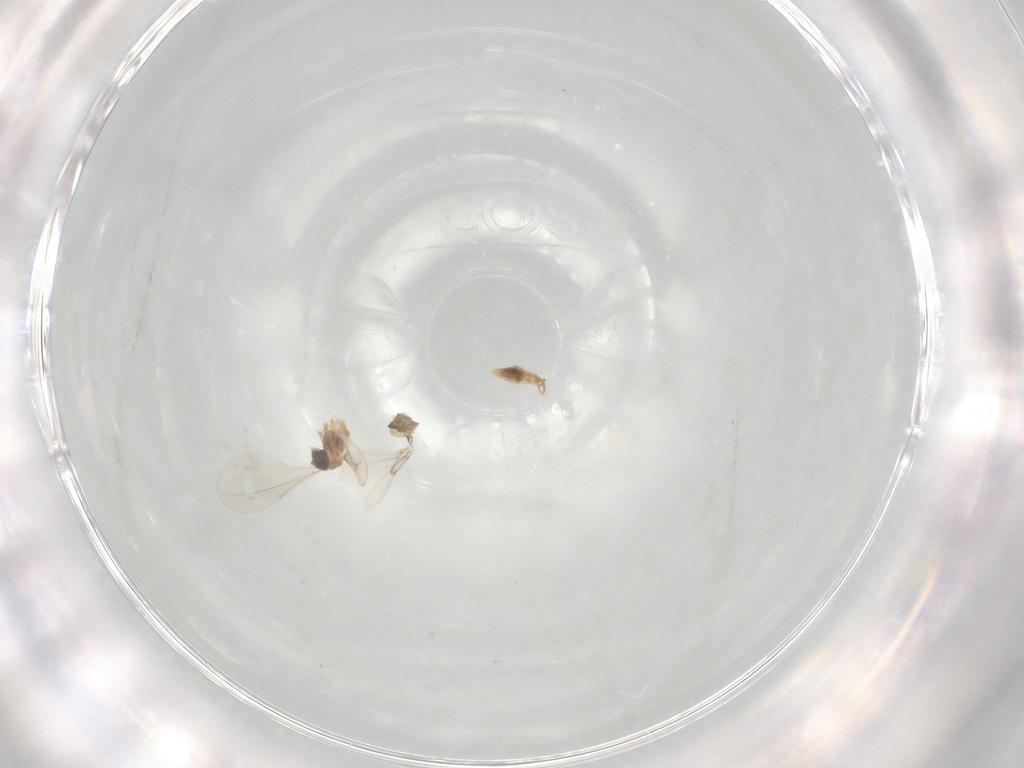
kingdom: Animalia
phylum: Arthropoda
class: Insecta
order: Diptera
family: Cecidomyiidae
